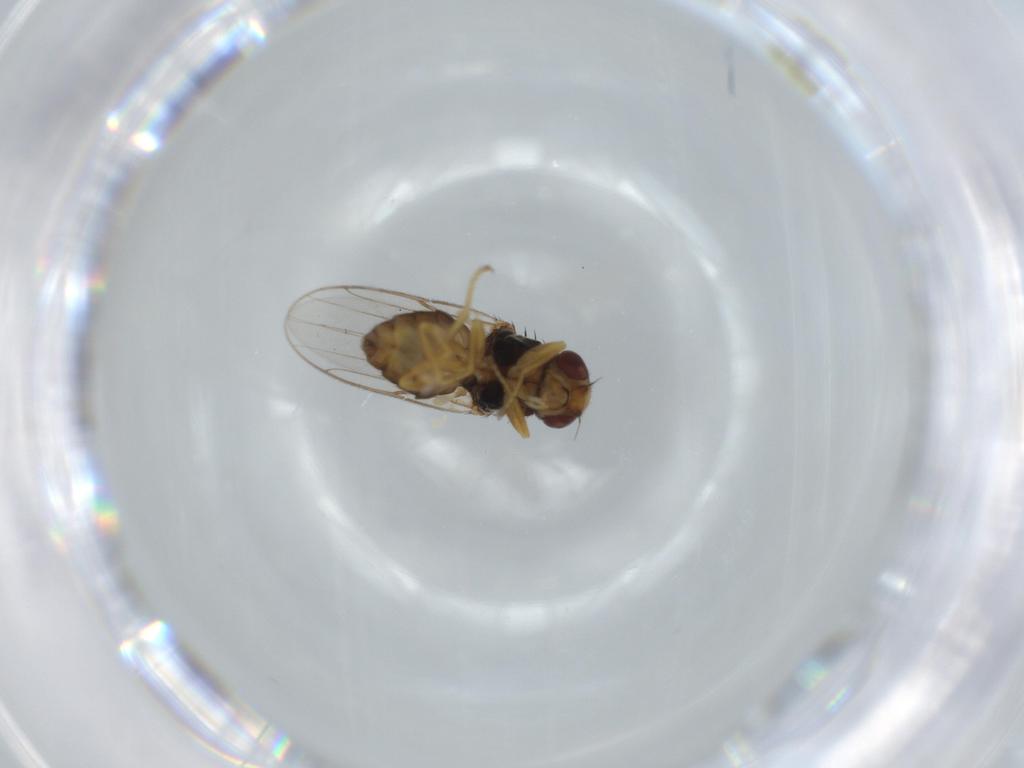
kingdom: Animalia
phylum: Arthropoda
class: Insecta
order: Diptera
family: Chloropidae
